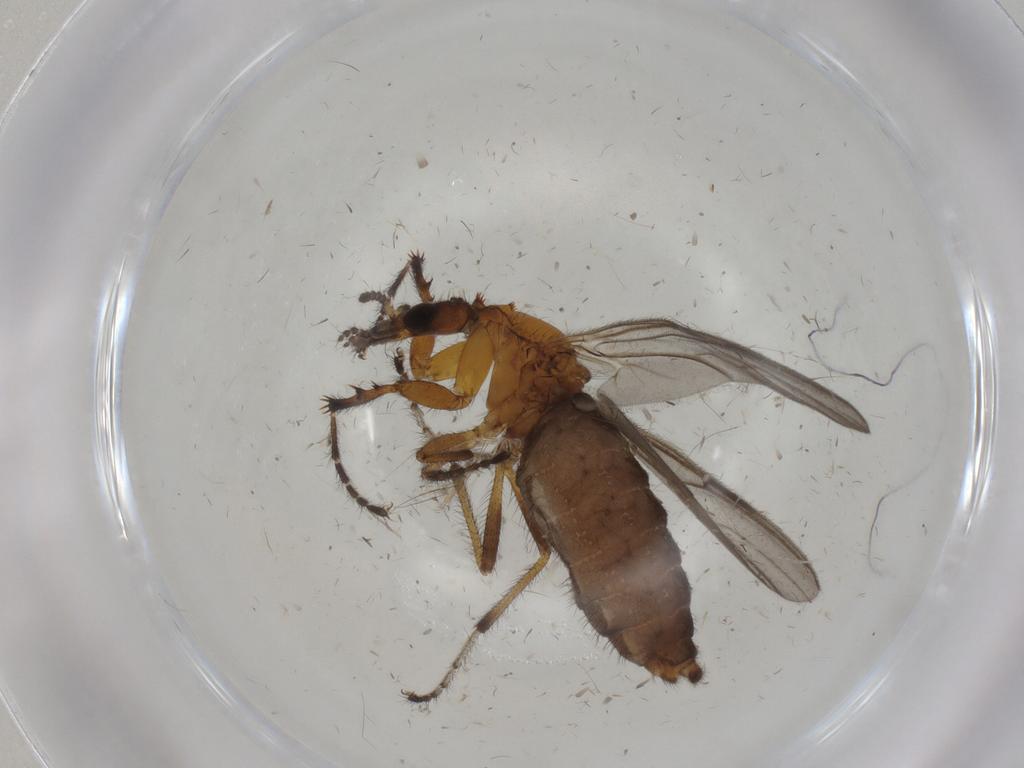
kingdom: Animalia
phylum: Arthropoda
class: Insecta
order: Diptera
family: Bibionidae
